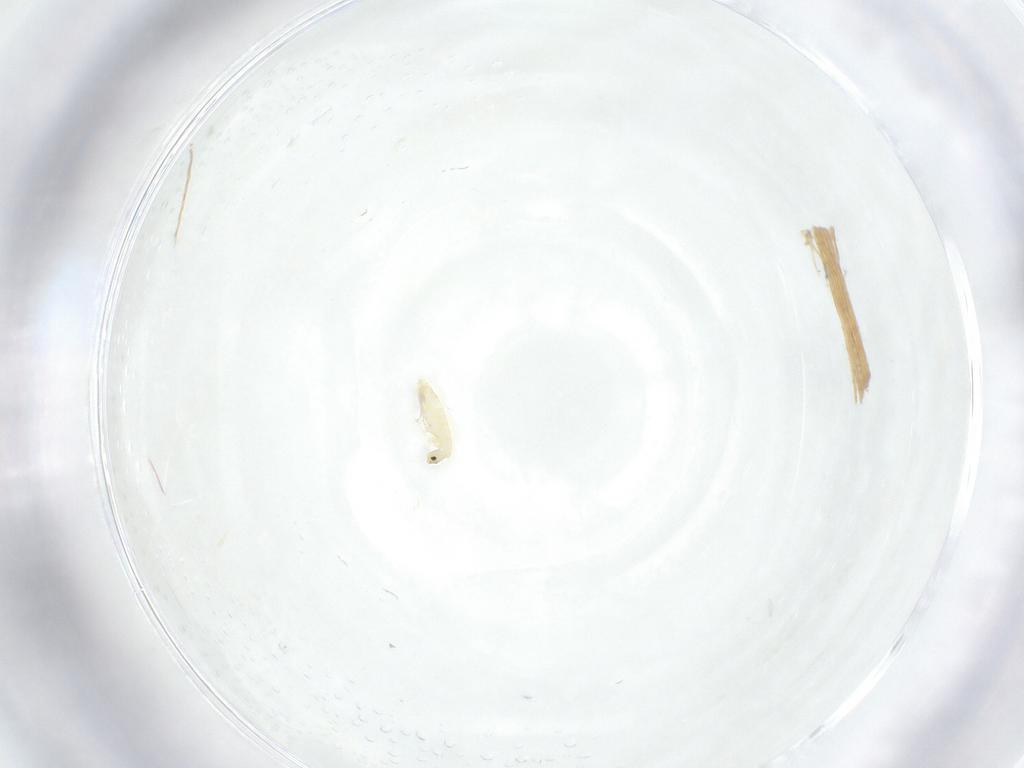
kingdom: Animalia
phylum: Arthropoda
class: Collembola
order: Entomobryomorpha
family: Entomobryidae
